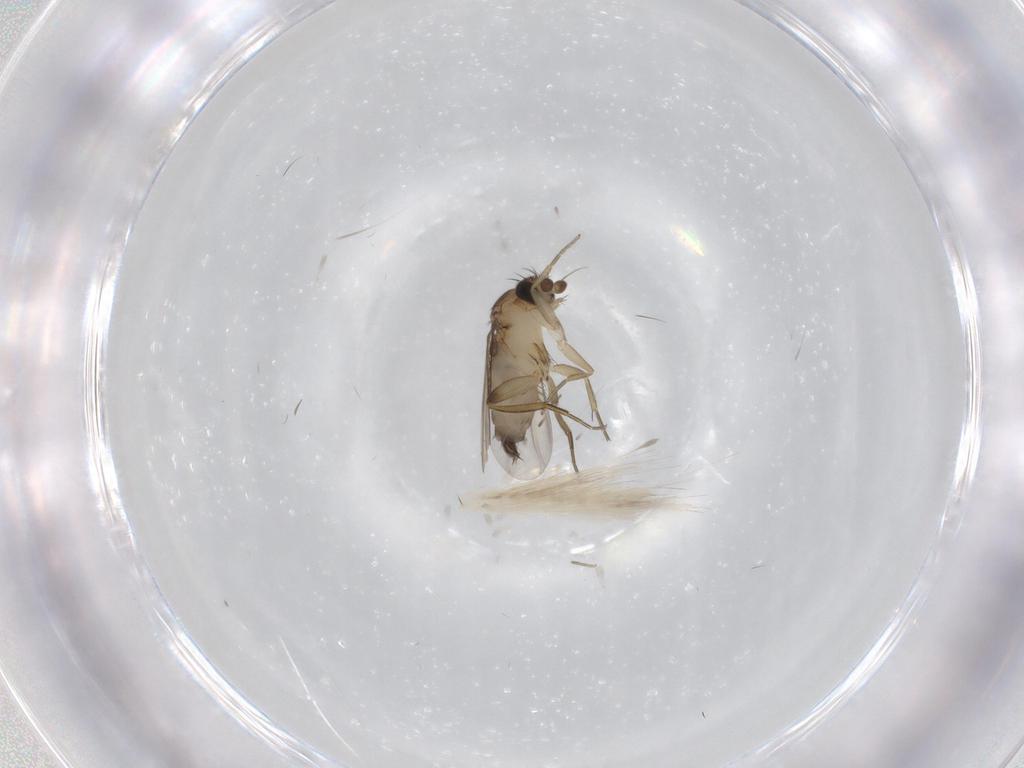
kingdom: Animalia
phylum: Arthropoda
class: Insecta
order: Diptera
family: Phoridae
